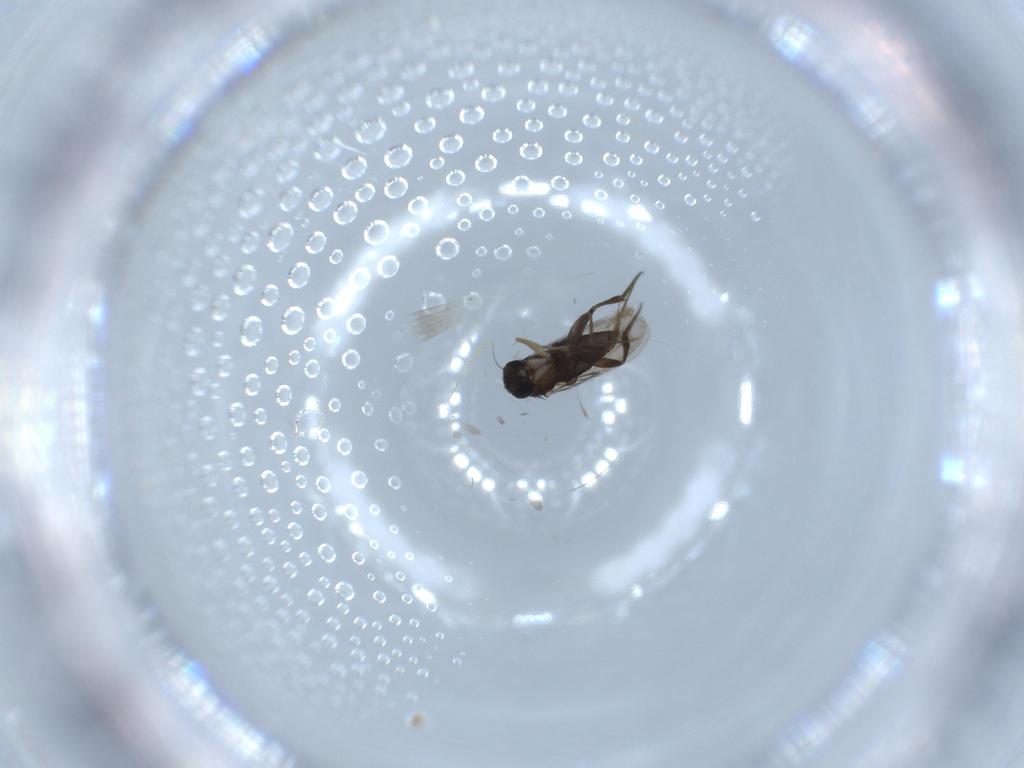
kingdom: Animalia
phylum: Arthropoda
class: Insecta
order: Diptera
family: Phoridae
